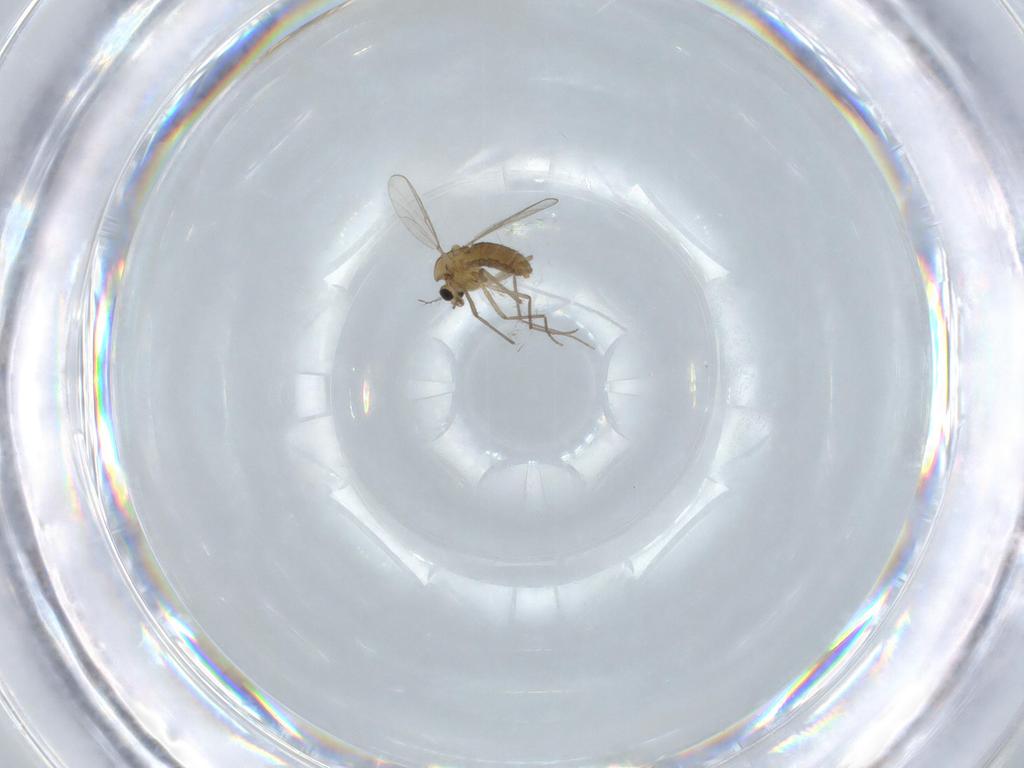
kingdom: Animalia
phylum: Arthropoda
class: Insecta
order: Diptera
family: Chironomidae
